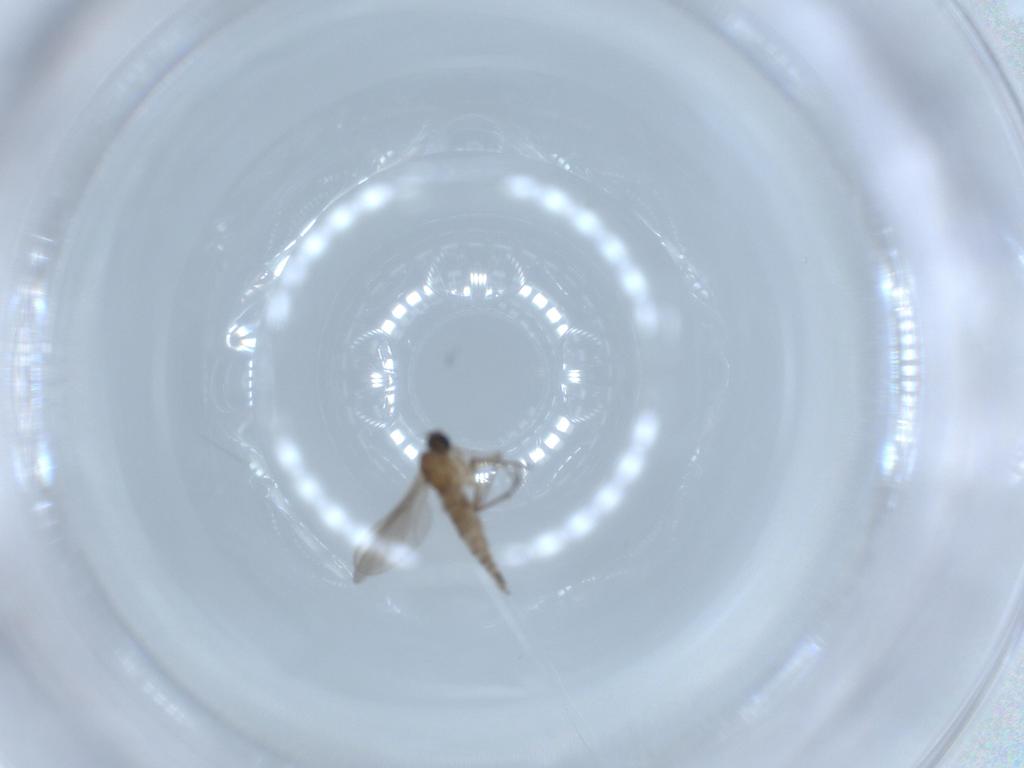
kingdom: Animalia
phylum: Arthropoda
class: Insecta
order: Diptera
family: Sciaridae
